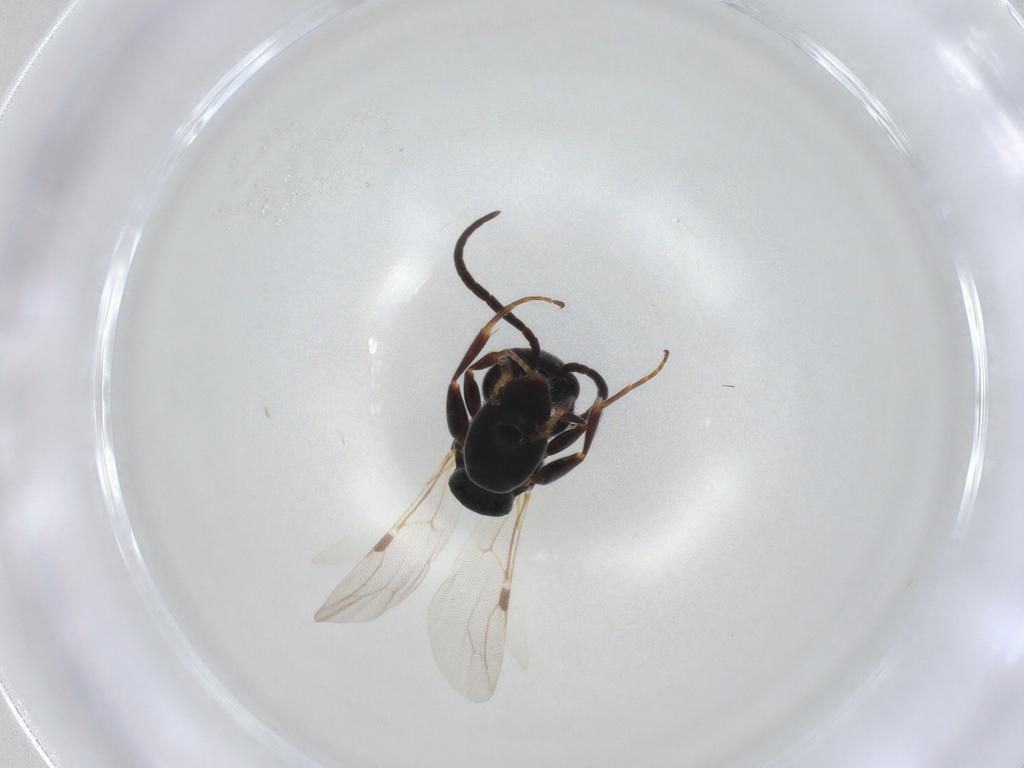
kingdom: Animalia
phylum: Arthropoda
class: Insecta
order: Hymenoptera
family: Bethylidae
